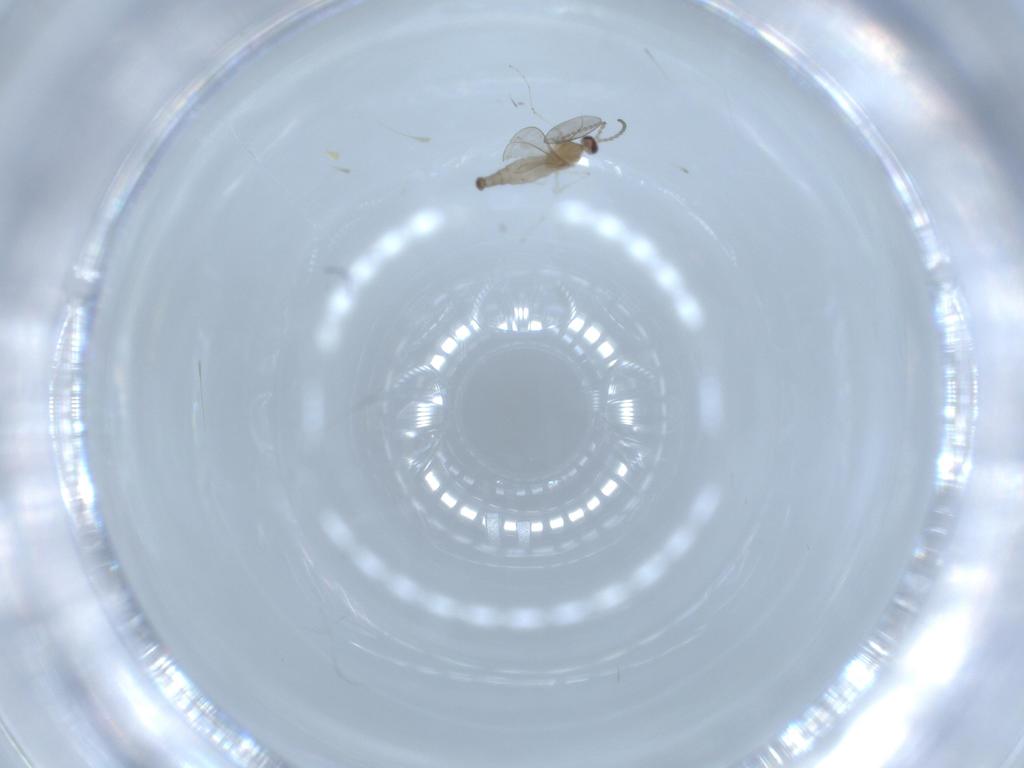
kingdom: Animalia
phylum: Arthropoda
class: Insecta
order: Diptera
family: Cecidomyiidae
